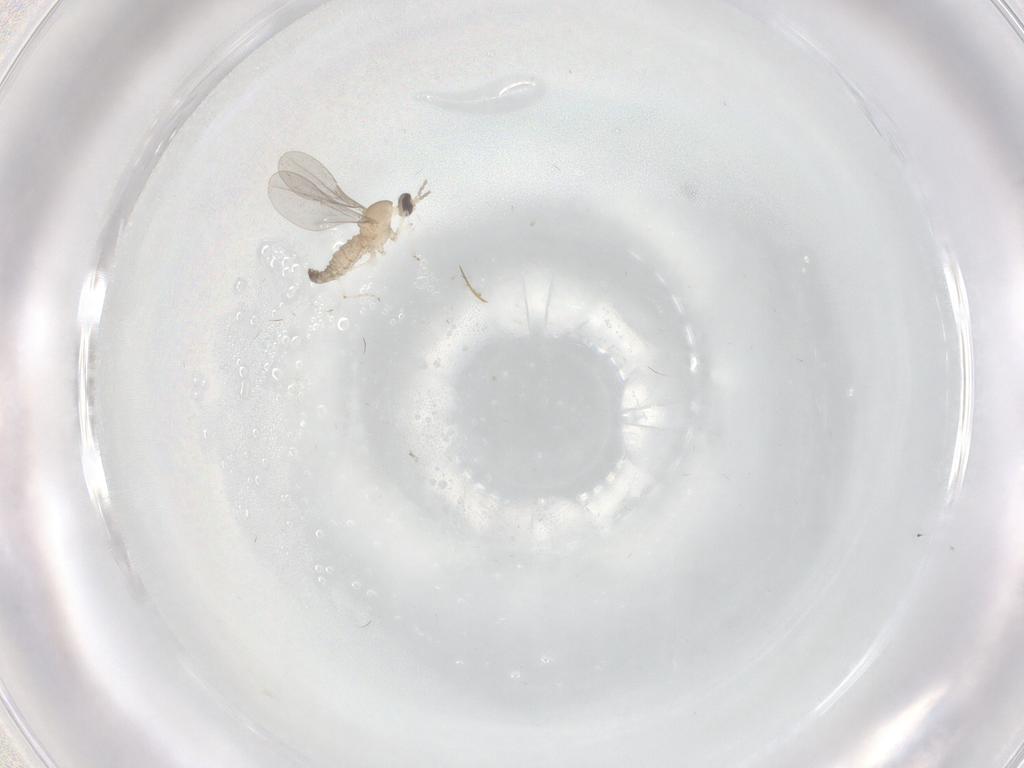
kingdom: Animalia
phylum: Arthropoda
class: Insecta
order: Diptera
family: Cecidomyiidae
